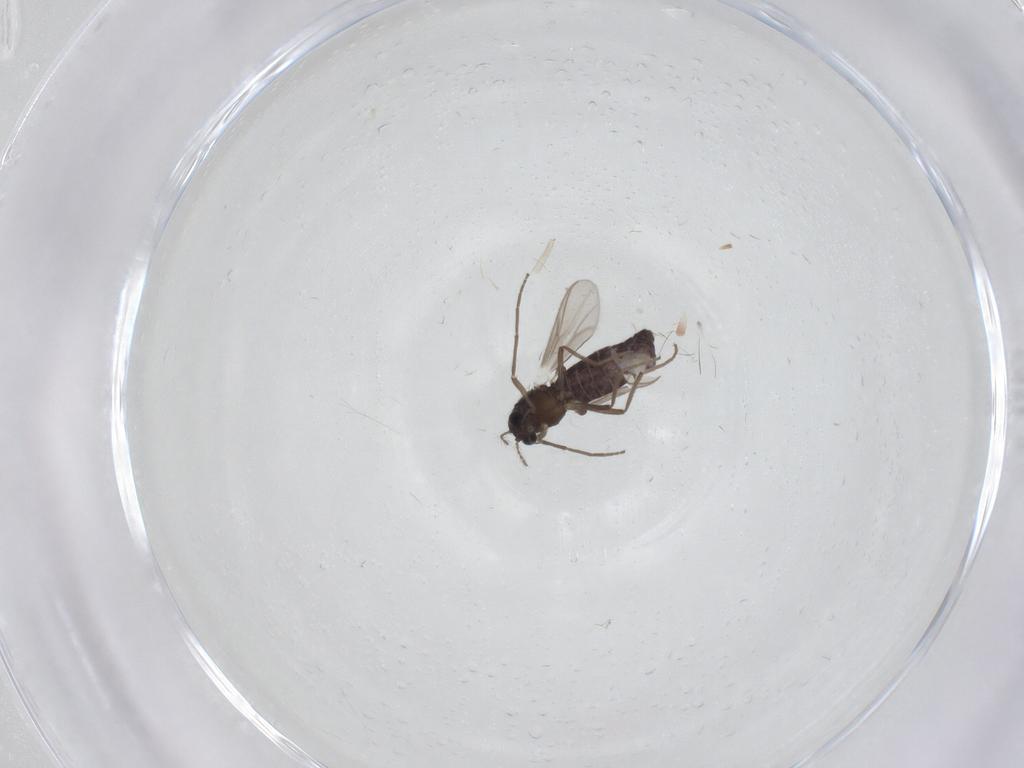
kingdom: Animalia
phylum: Arthropoda
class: Insecta
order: Diptera
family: Chironomidae
